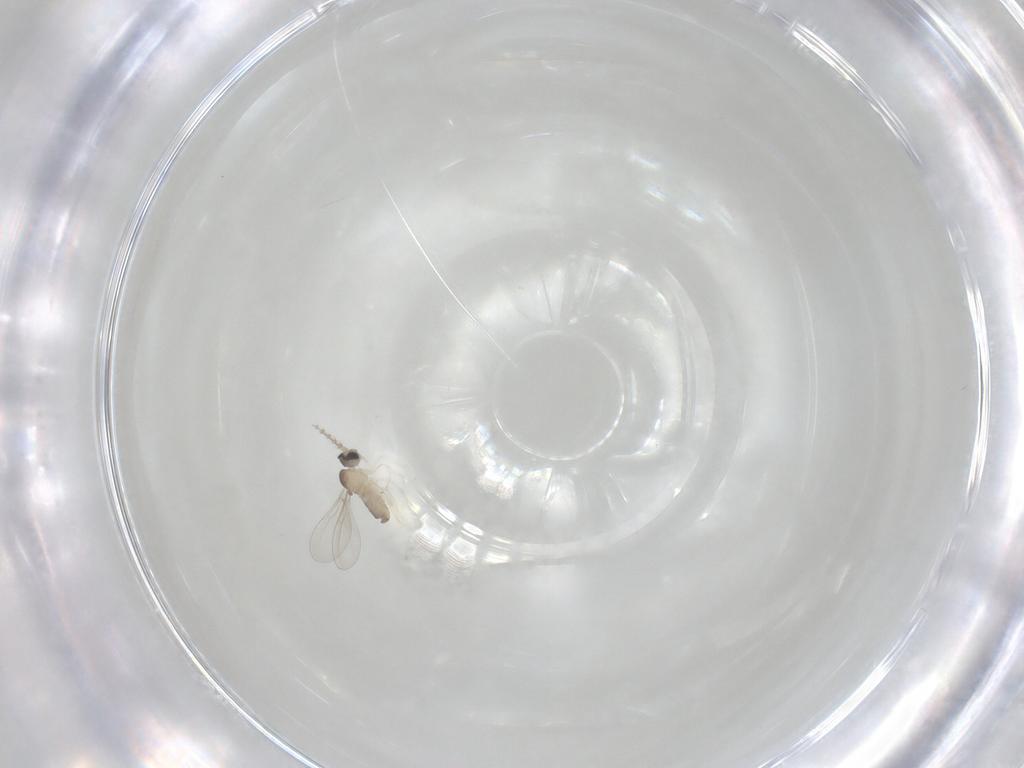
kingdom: Animalia
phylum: Arthropoda
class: Insecta
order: Diptera
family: Cecidomyiidae
